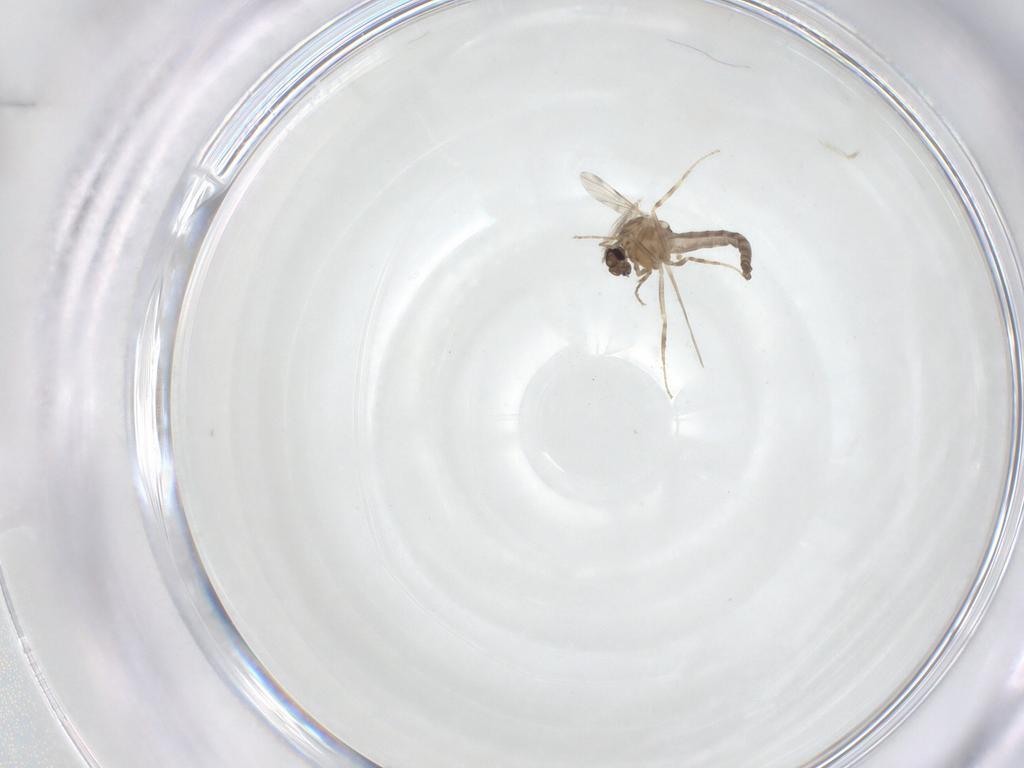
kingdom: Animalia
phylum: Arthropoda
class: Insecta
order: Diptera
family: Ceratopogonidae
